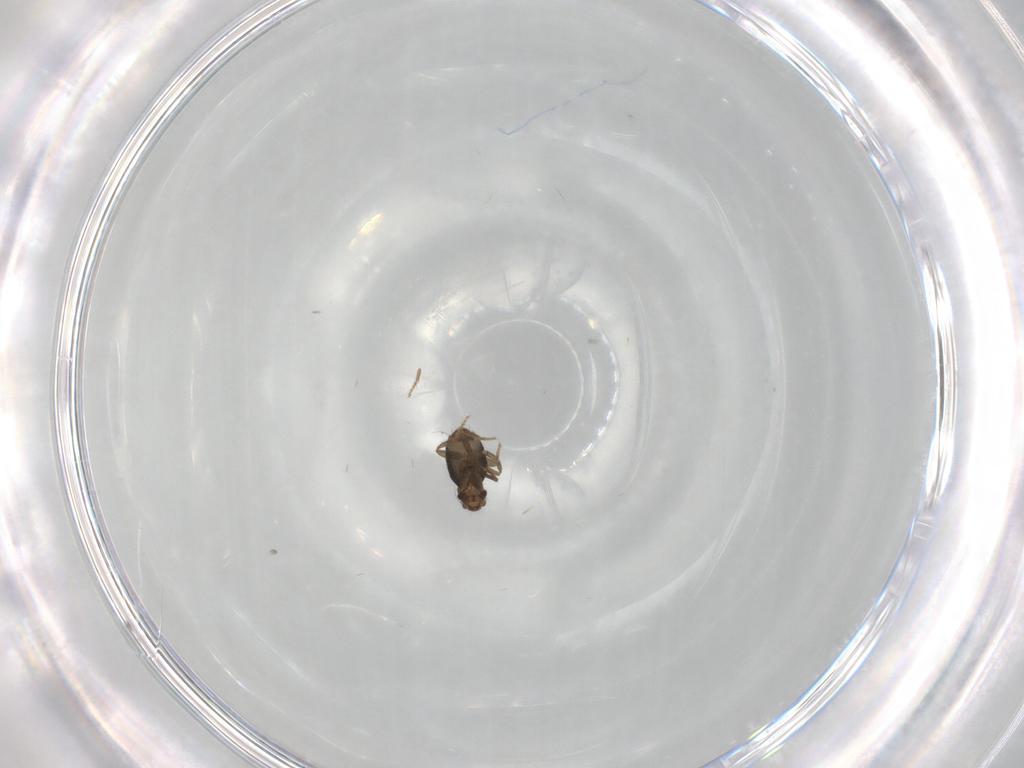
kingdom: Animalia
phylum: Arthropoda
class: Insecta
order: Diptera
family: Phoridae
